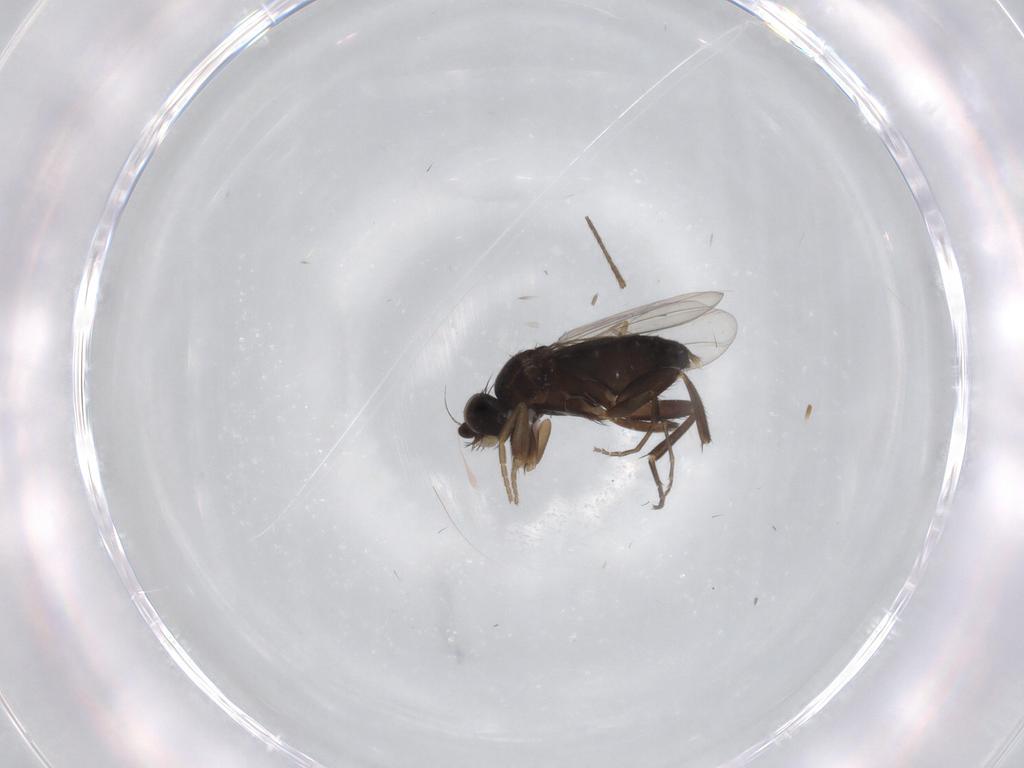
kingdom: Animalia
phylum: Arthropoda
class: Insecta
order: Diptera
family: Phoridae
